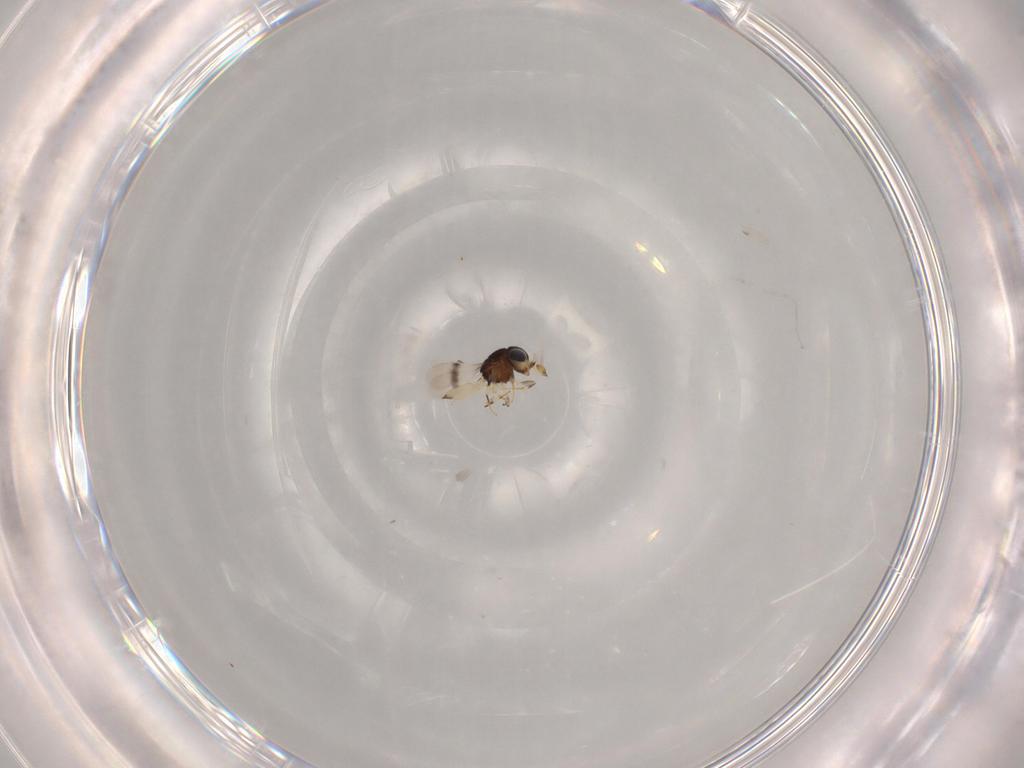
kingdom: Animalia
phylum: Arthropoda
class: Insecta
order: Hymenoptera
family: Scelionidae
